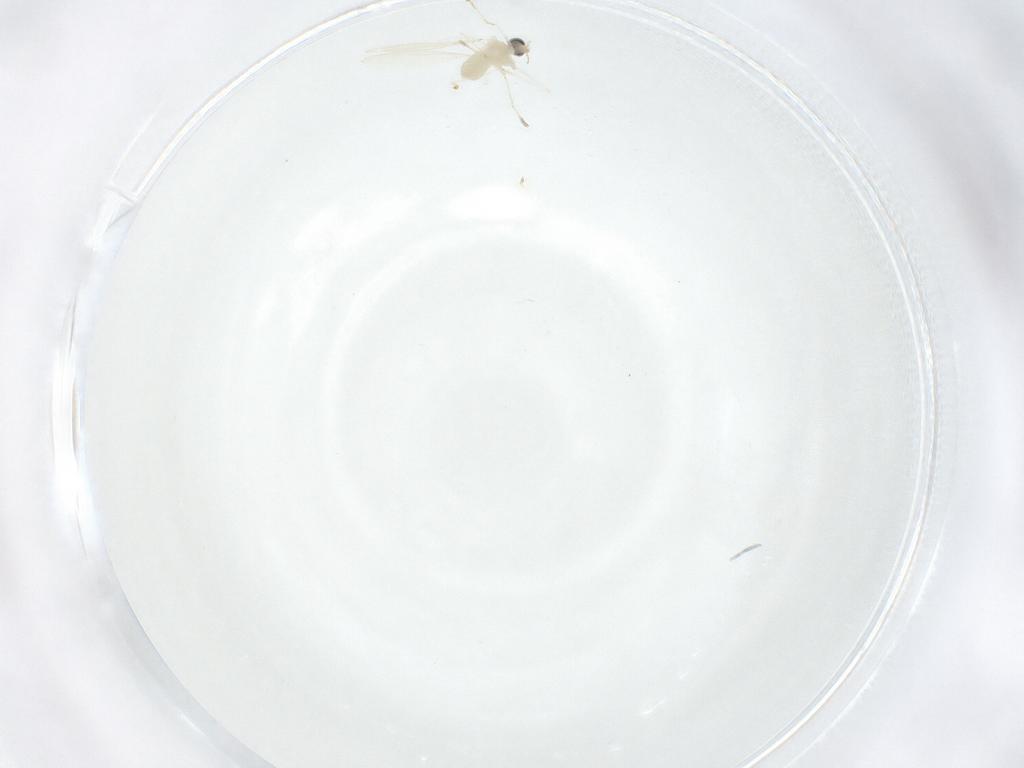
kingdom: Animalia
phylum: Arthropoda
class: Insecta
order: Diptera
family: Cecidomyiidae
